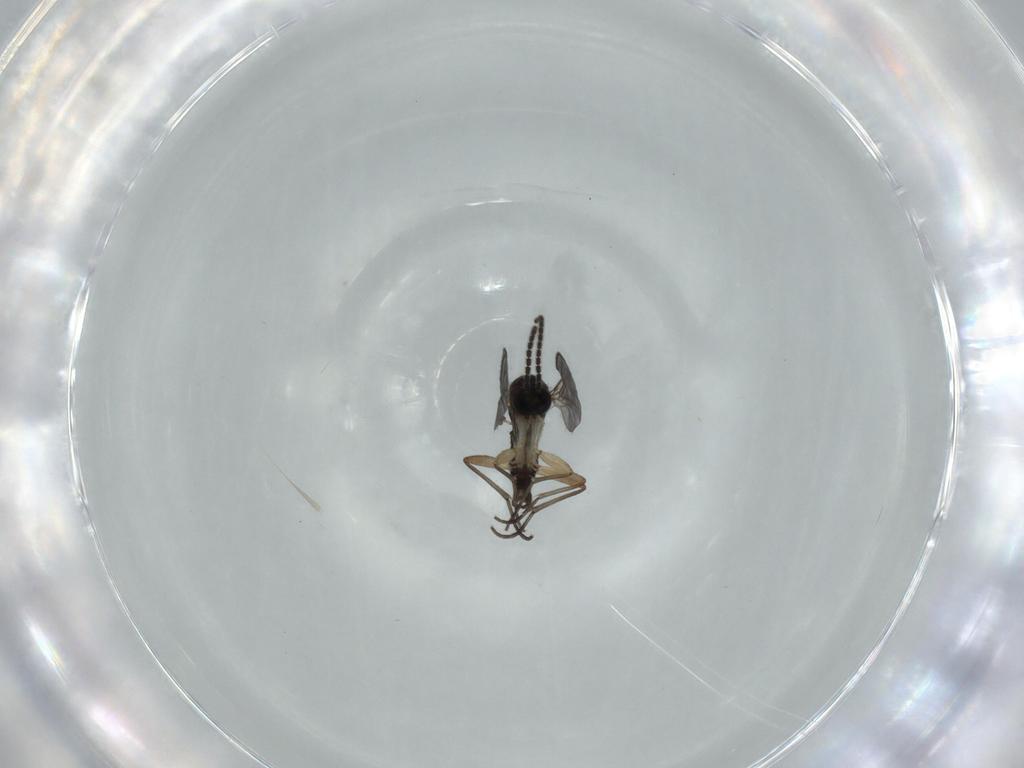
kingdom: Animalia
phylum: Arthropoda
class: Insecta
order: Diptera
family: Sciaridae
